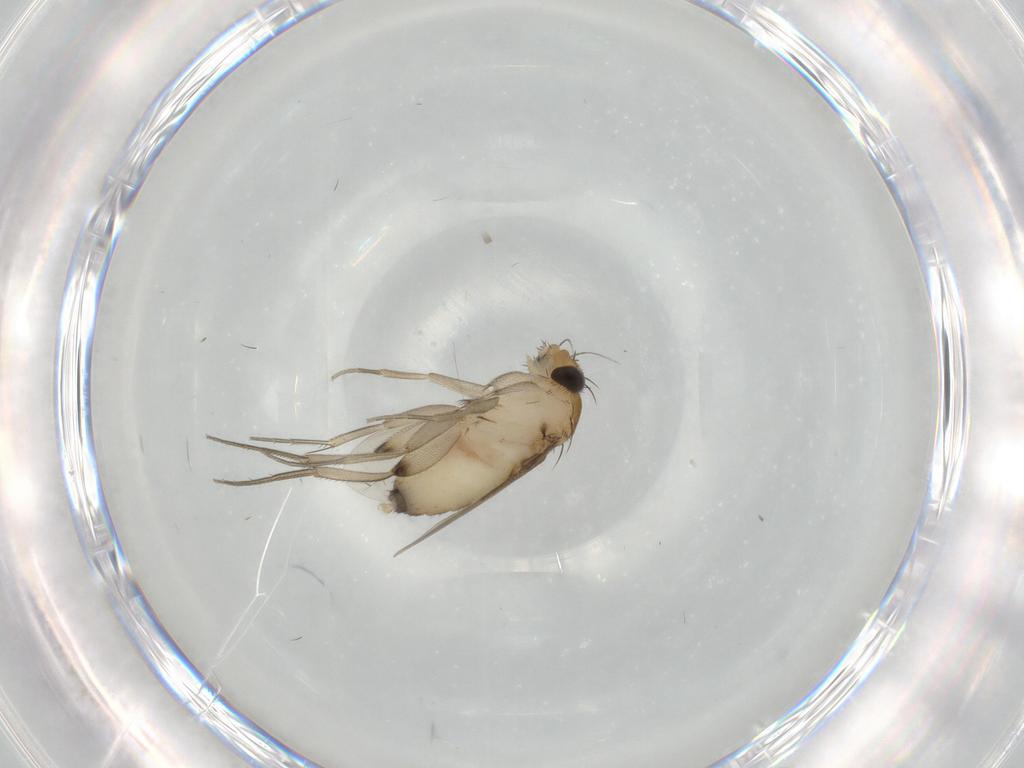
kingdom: Animalia
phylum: Arthropoda
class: Insecta
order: Diptera
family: Phoridae
